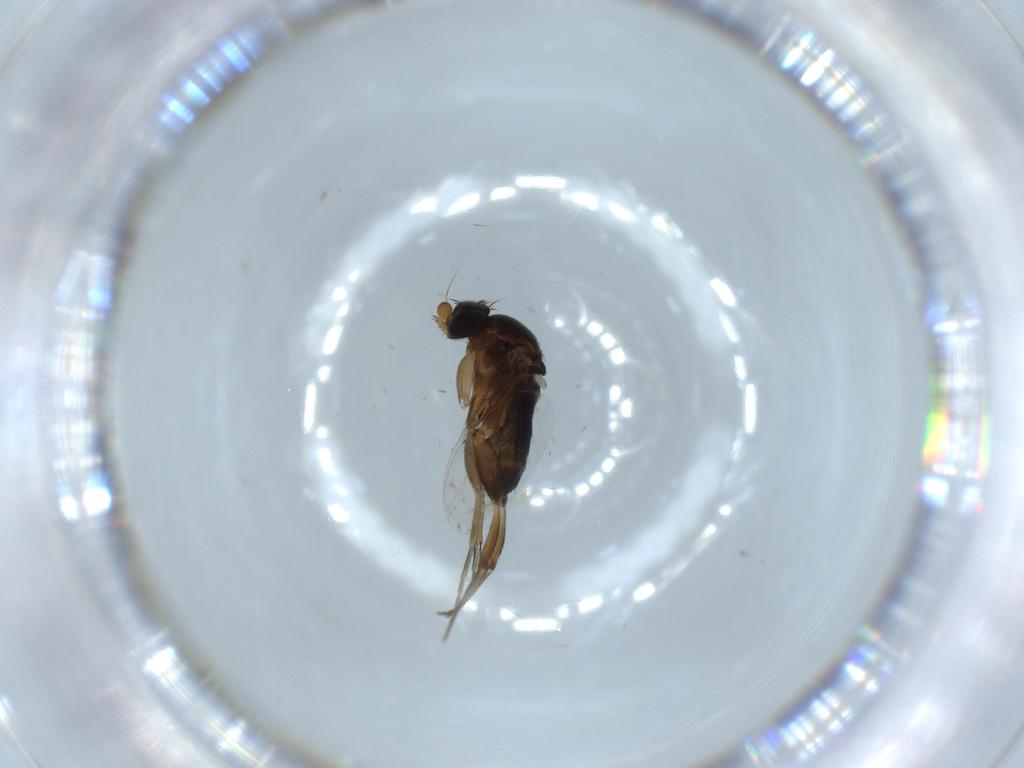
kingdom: Animalia
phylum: Arthropoda
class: Insecta
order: Diptera
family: Phoridae
